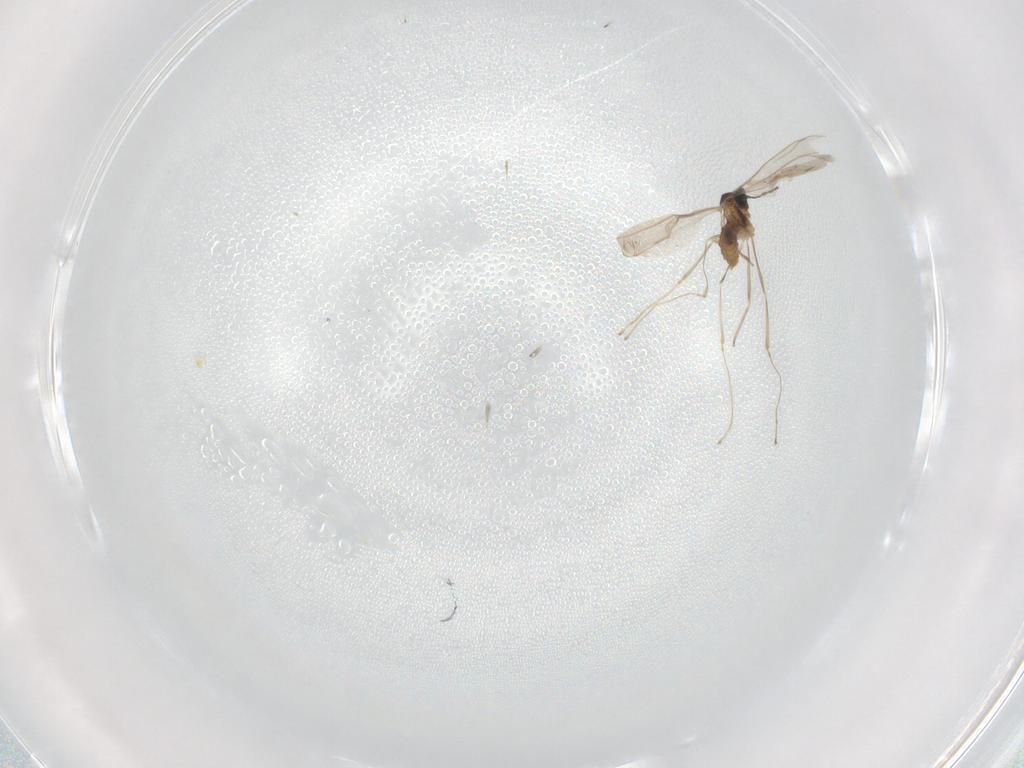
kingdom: Animalia
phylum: Arthropoda
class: Insecta
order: Diptera
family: Cecidomyiidae
